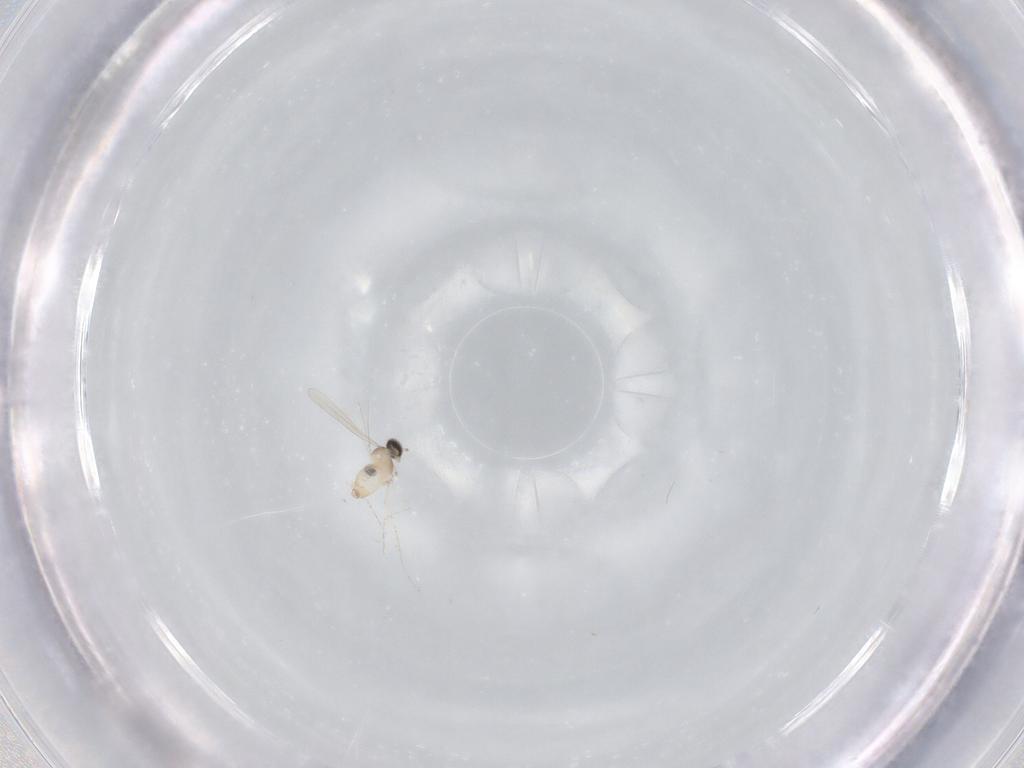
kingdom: Animalia
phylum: Arthropoda
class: Insecta
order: Diptera
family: Cecidomyiidae
